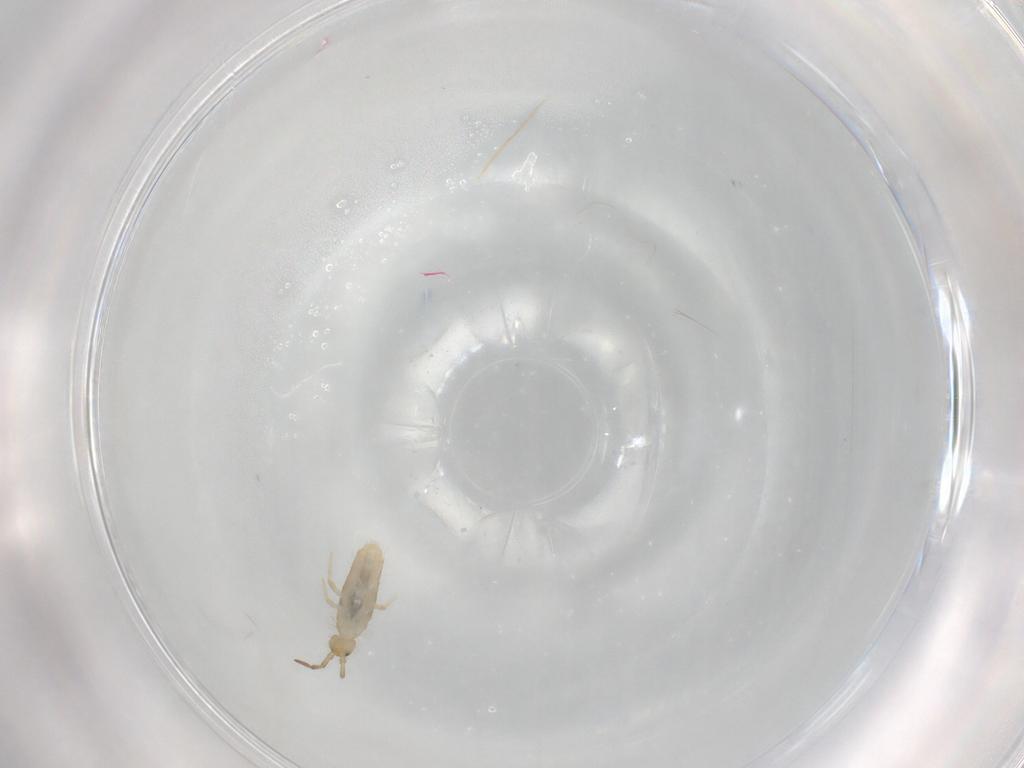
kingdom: Animalia
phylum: Arthropoda
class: Collembola
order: Entomobryomorpha
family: Entomobryidae
